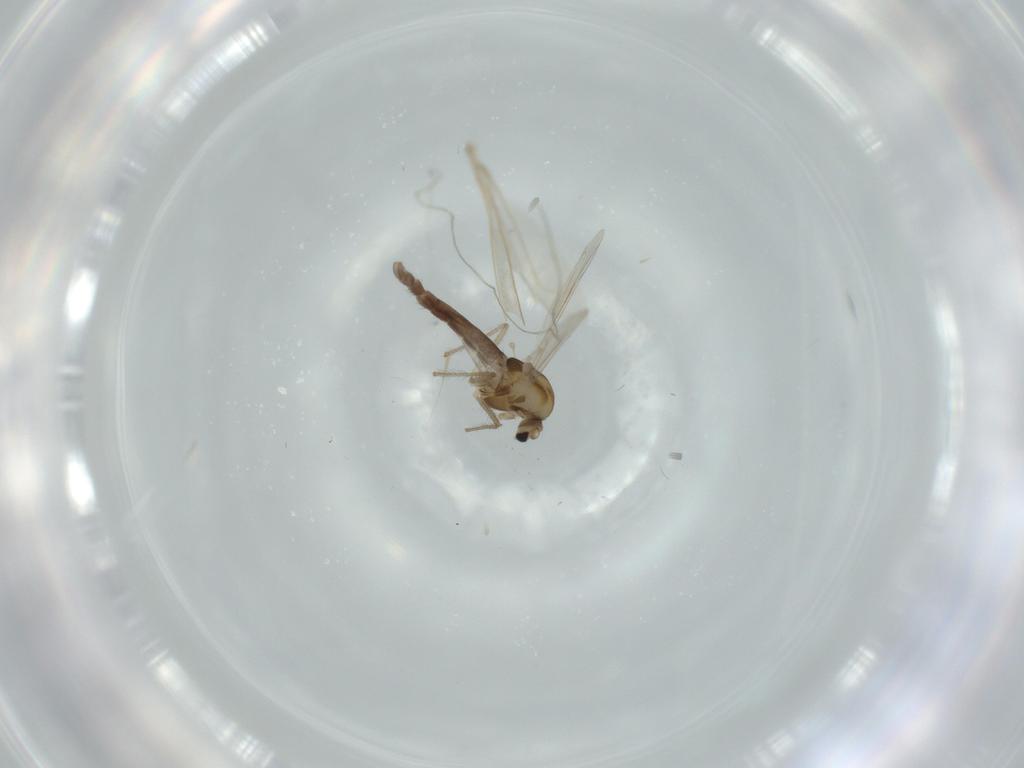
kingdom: Animalia
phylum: Arthropoda
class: Insecta
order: Diptera
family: Chironomidae
